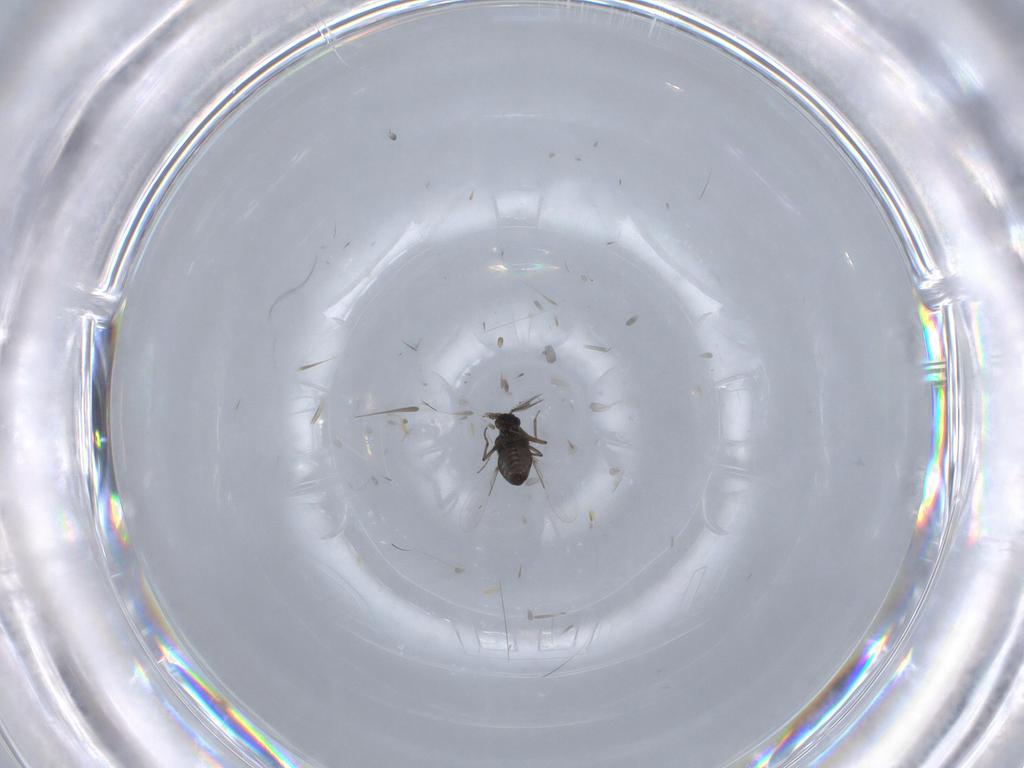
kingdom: Animalia
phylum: Arthropoda
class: Insecta
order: Diptera
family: Ceratopogonidae
